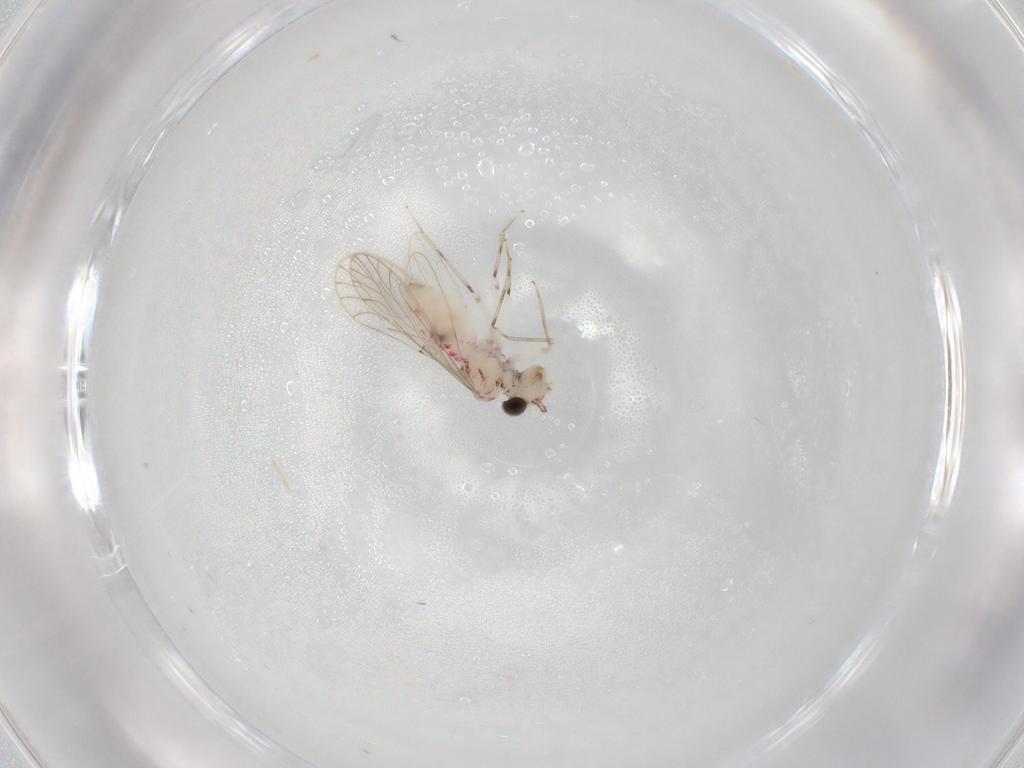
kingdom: Animalia
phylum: Arthropoda
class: Insecta
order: Psocodea
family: Caeciliusidae
